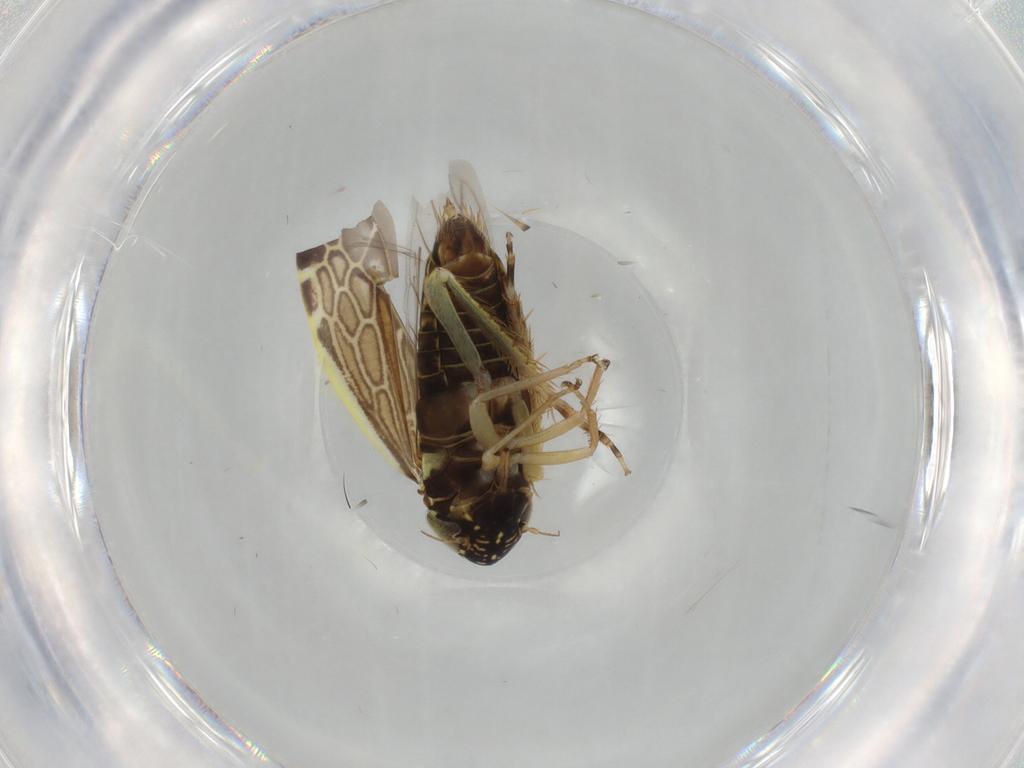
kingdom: Animalia
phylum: Arthropoda
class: Insecta
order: Hemiptera
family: Cicadellidae
